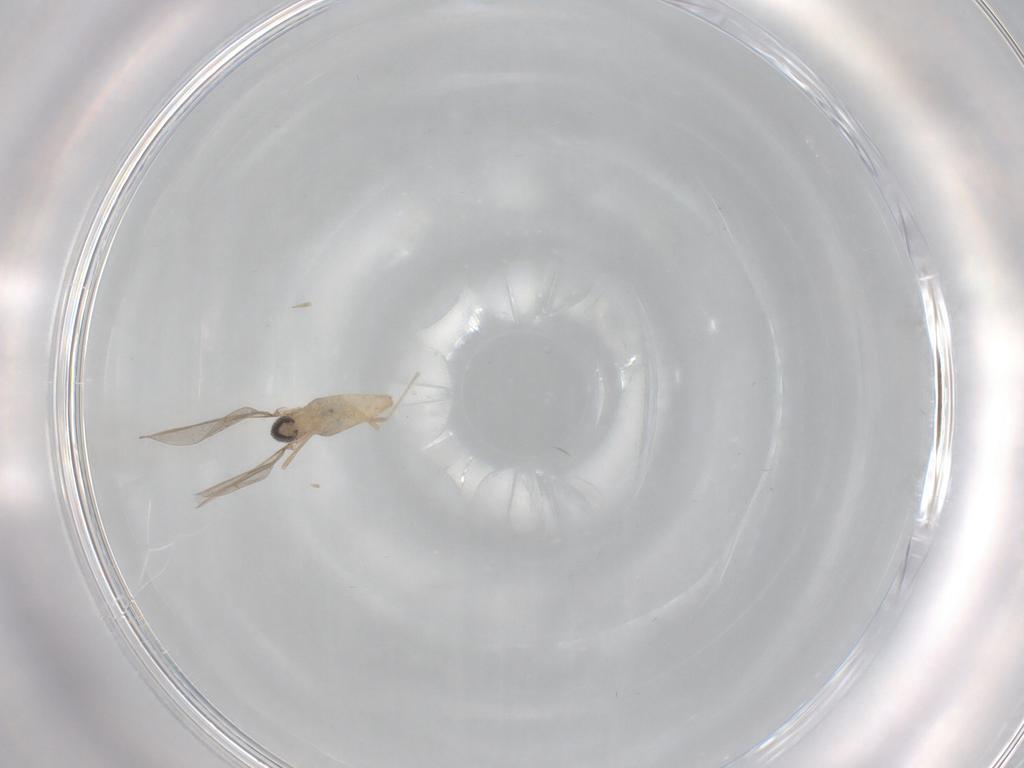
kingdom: Animalia
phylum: Arthropoda
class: Insecta
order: Diptera
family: Cecidomyiidae
